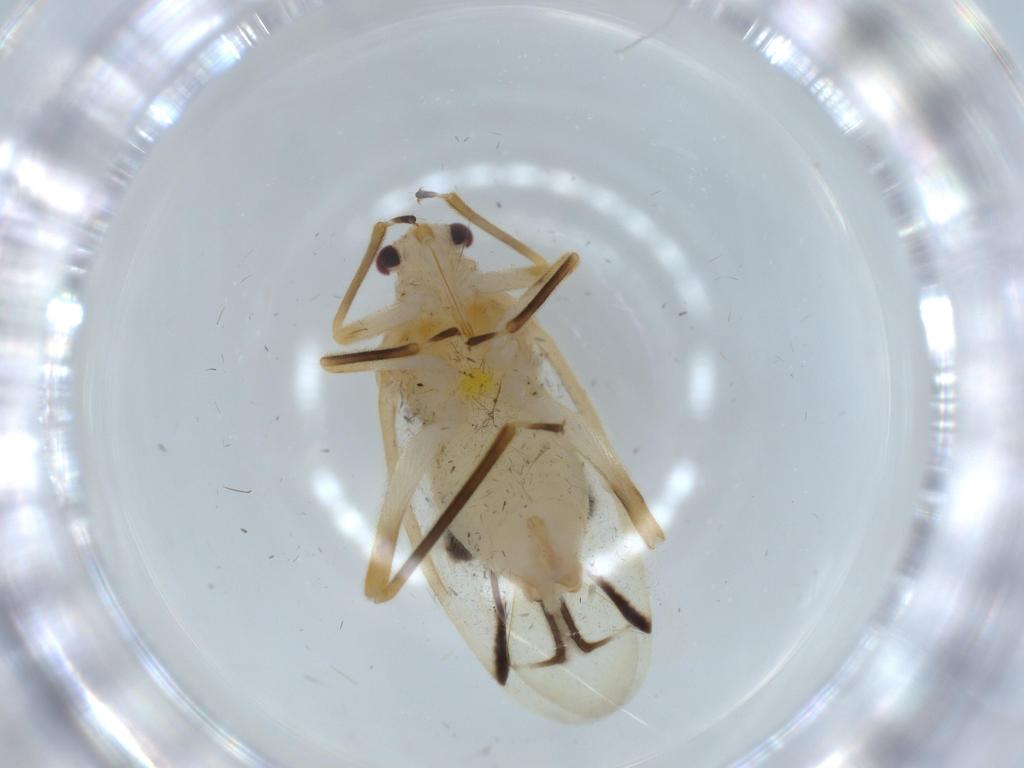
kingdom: Animalia
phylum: Arthropoda
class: Insecta
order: Hemiptera
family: Miridae
